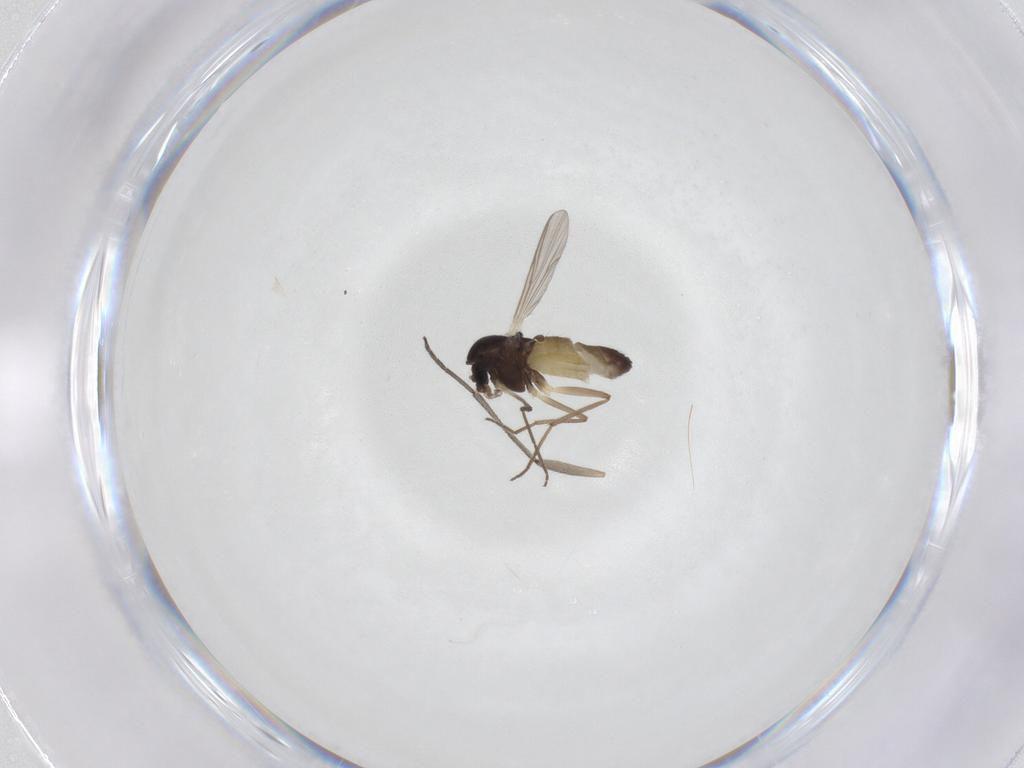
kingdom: Animalia
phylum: Arthropoda
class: Insecta
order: Diptera
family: Chironomidae
